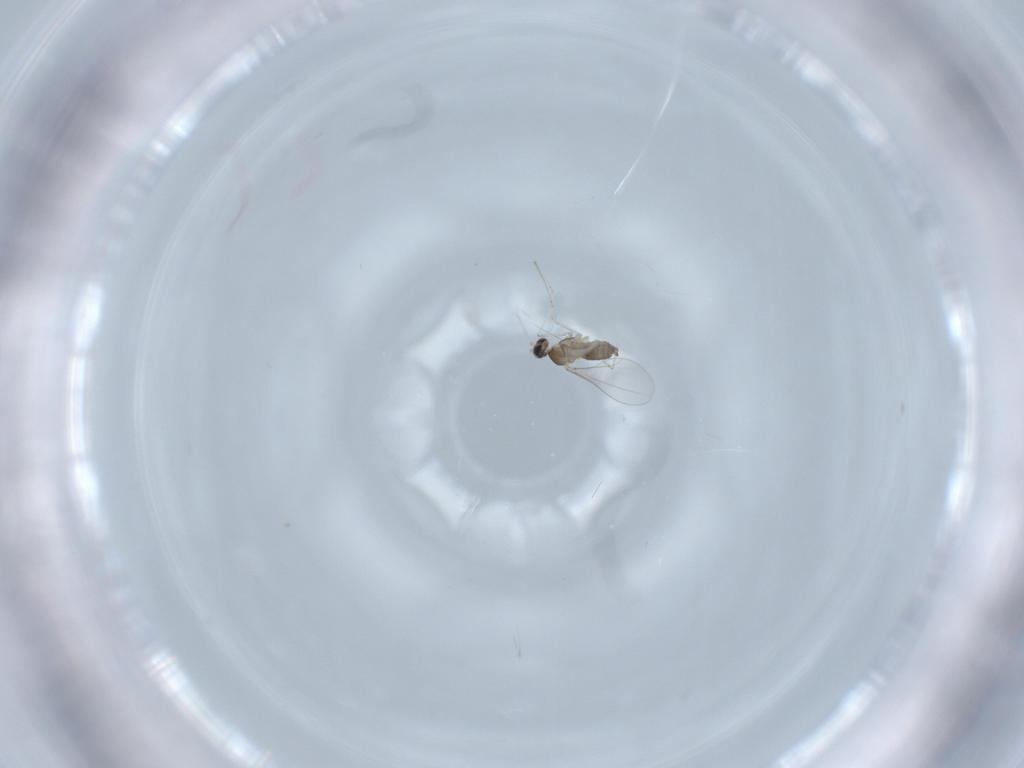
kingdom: Animalia
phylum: Arthropoda
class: Insecta
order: Diptera
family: Cecidomyiidae
